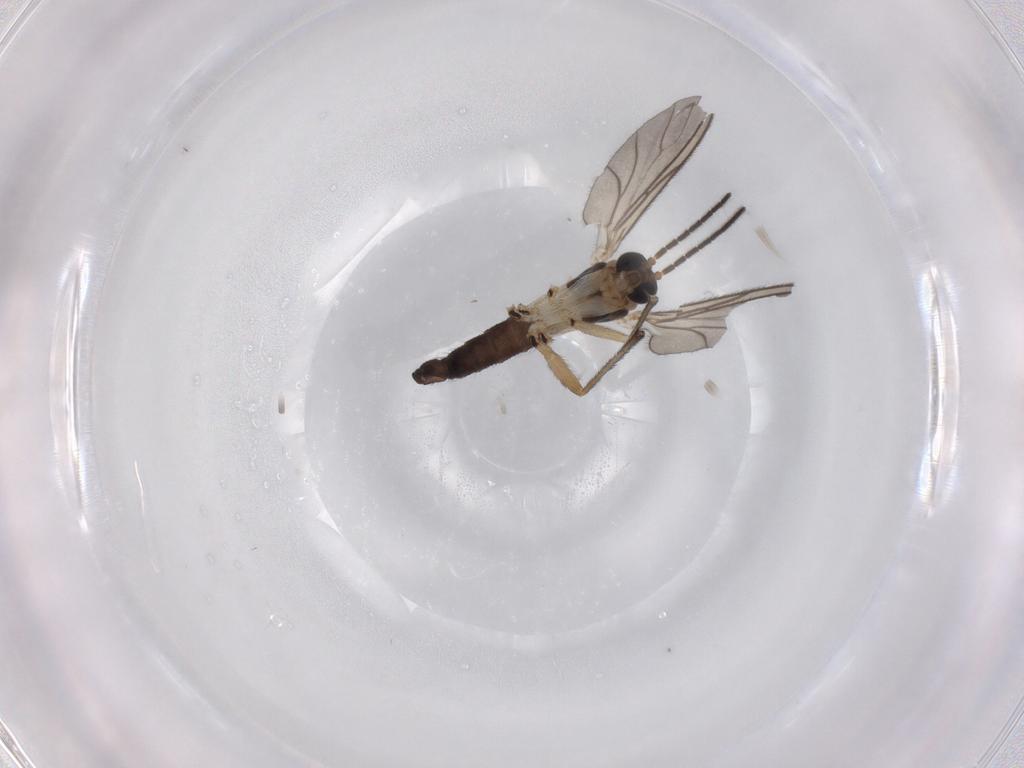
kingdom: Animalia
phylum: Arthropoda
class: Insecta
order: Diptera
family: Sciaridae
